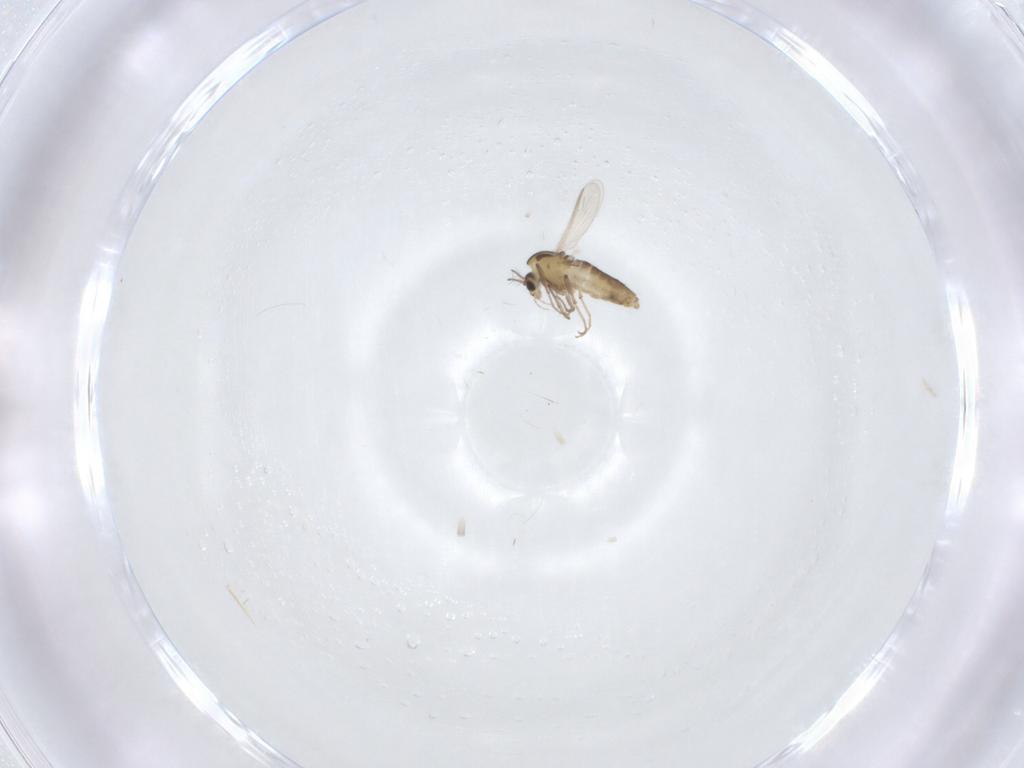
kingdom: Animalia
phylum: Arthropoda
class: Insecta
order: Diptera
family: Chironomidae
